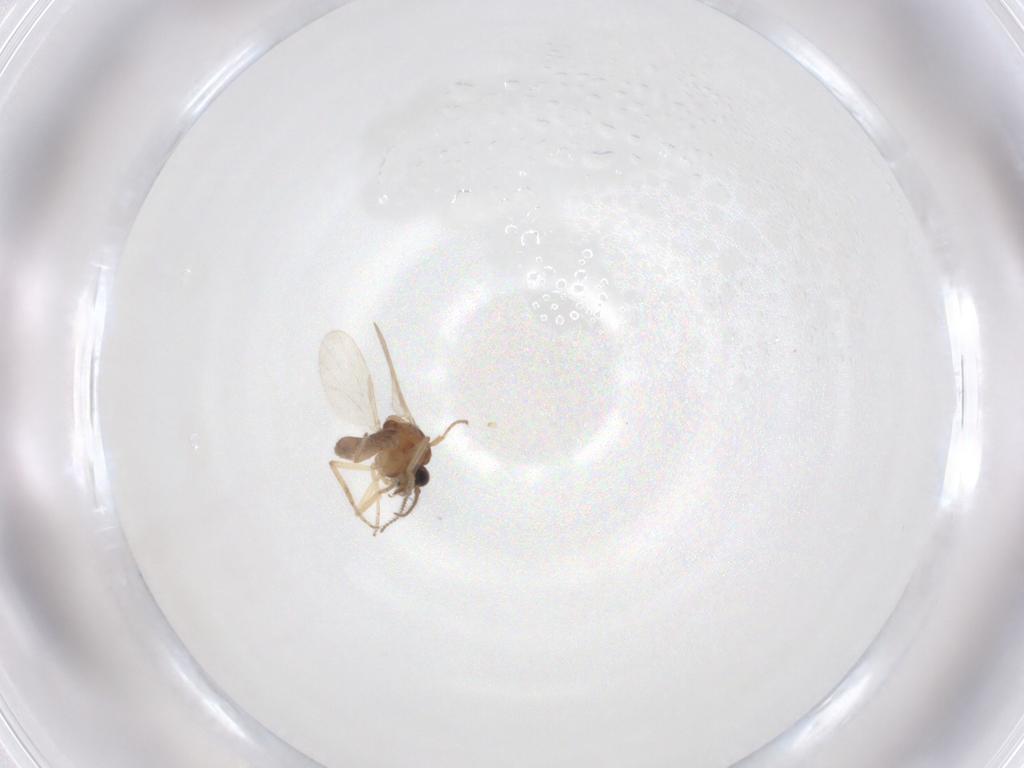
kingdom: Animalia
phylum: Arthropoda
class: Insecta
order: Diptera
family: Ceratopogonidae
